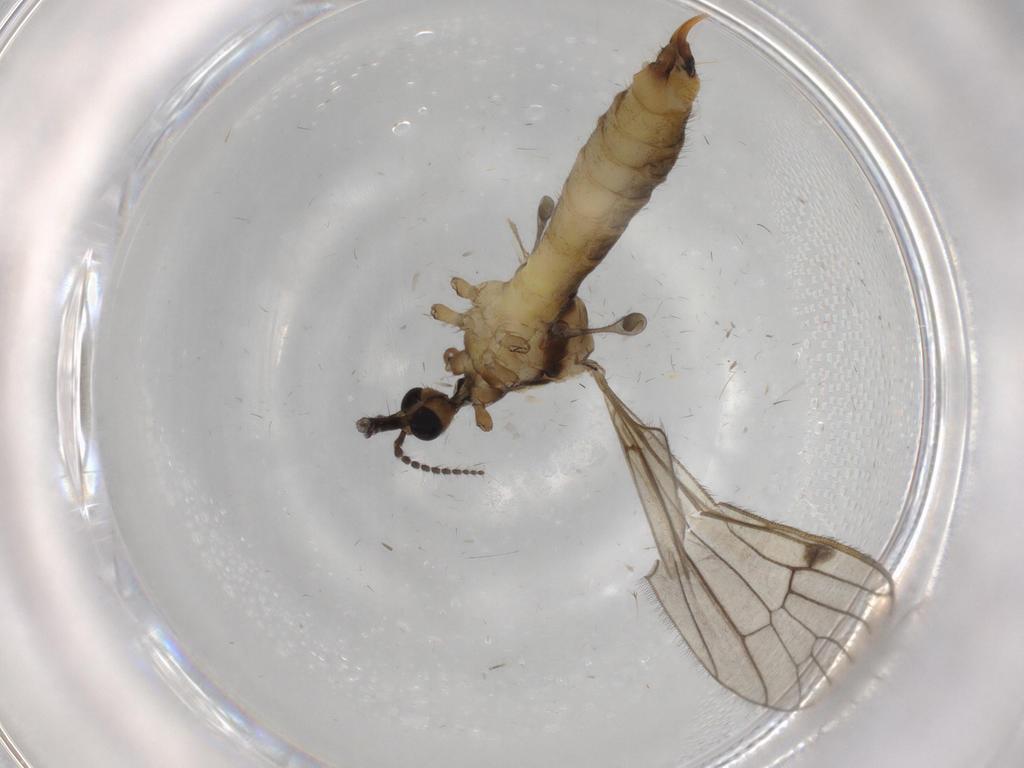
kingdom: Animalia
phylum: Arthropoda
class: Insecta
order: Diptera
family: Limoniidae
